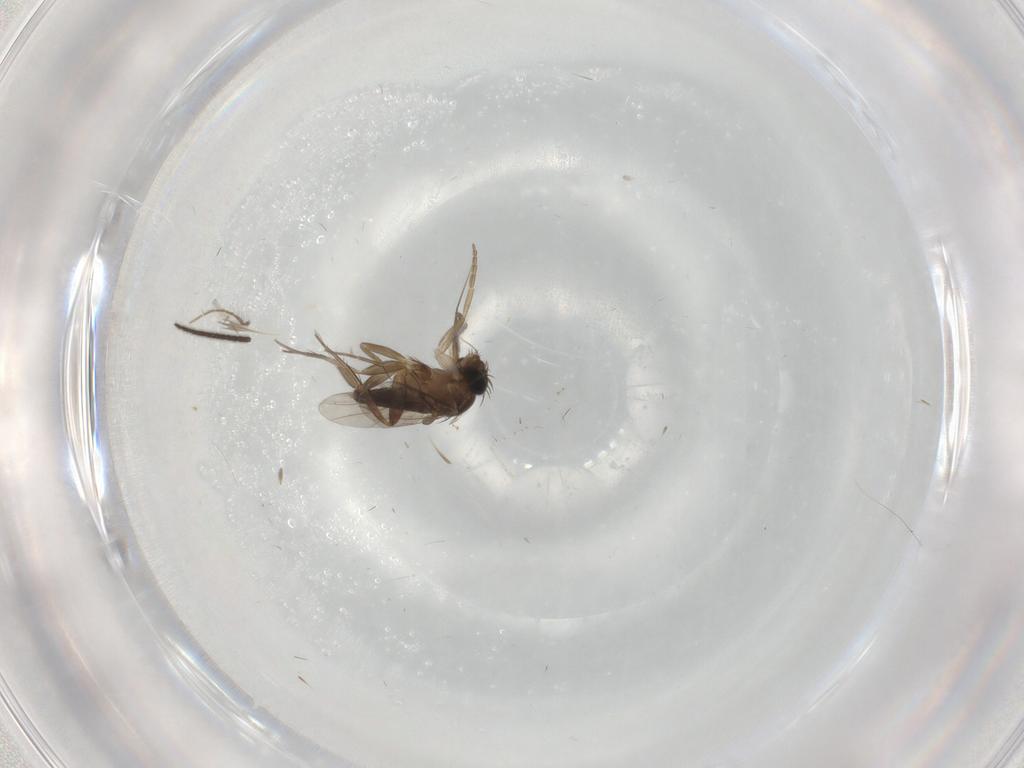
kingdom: Animalia
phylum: Arthropoda
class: Insecta
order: Diptera
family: Phoridae
